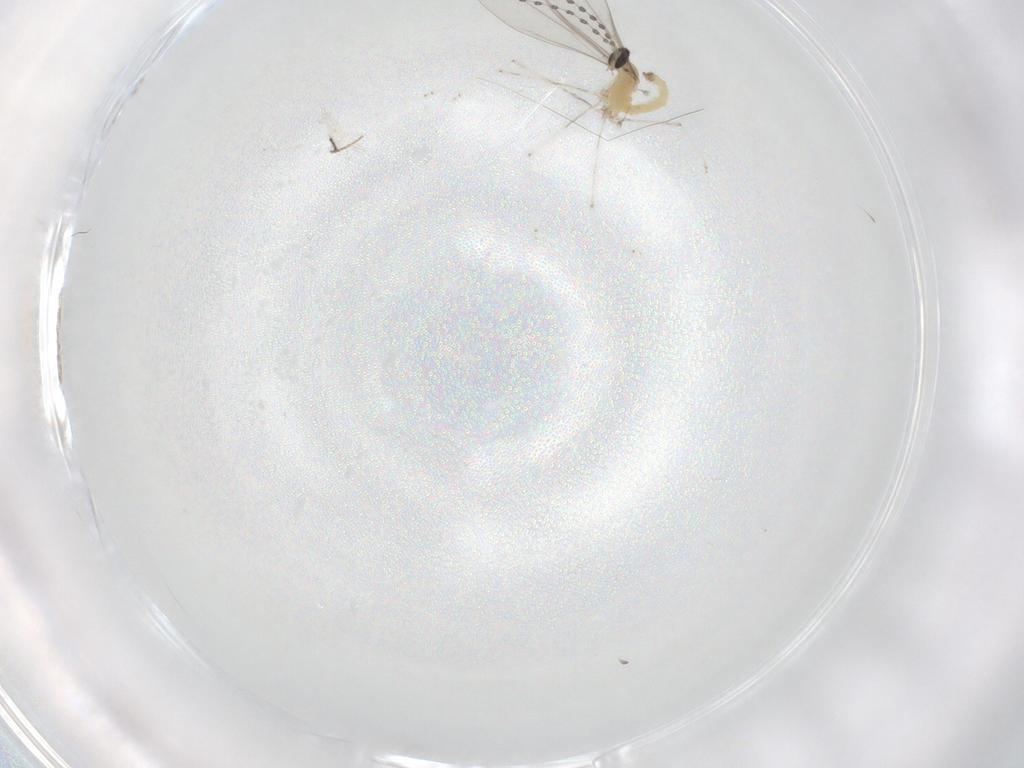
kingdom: Animalia
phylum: Arthropoda
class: Insecta
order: Diptera
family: Cecidomyiidae
